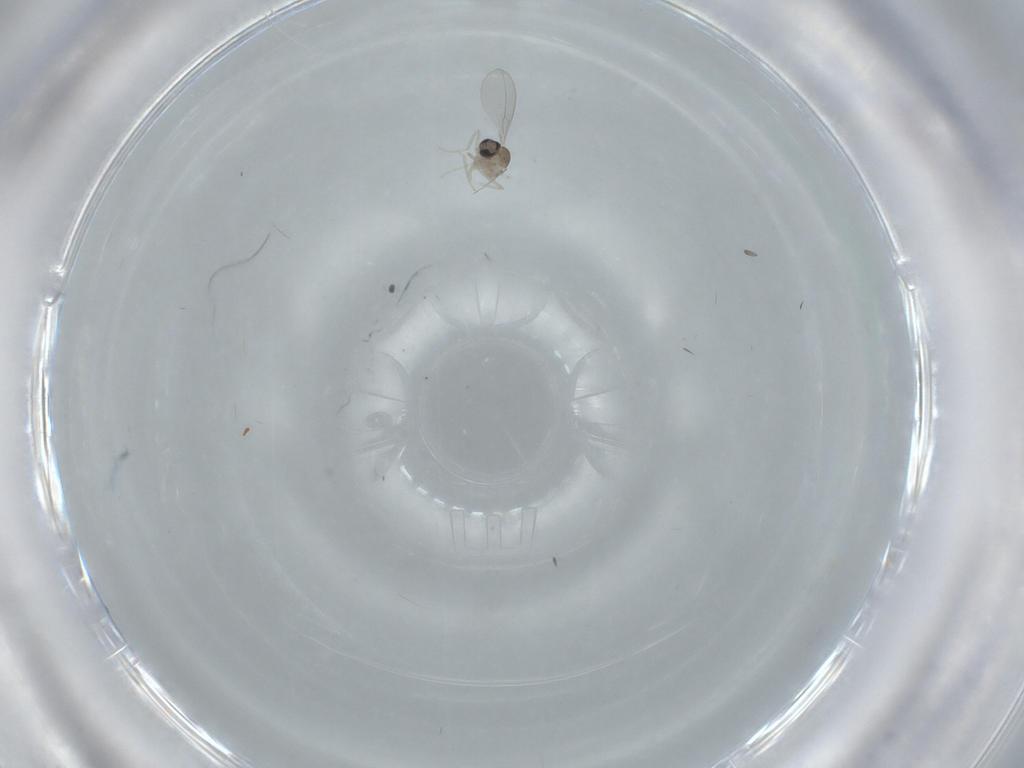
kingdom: Animalia
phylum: Arthropoda
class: Insecta
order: Diptera
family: Cecidomyiidae
